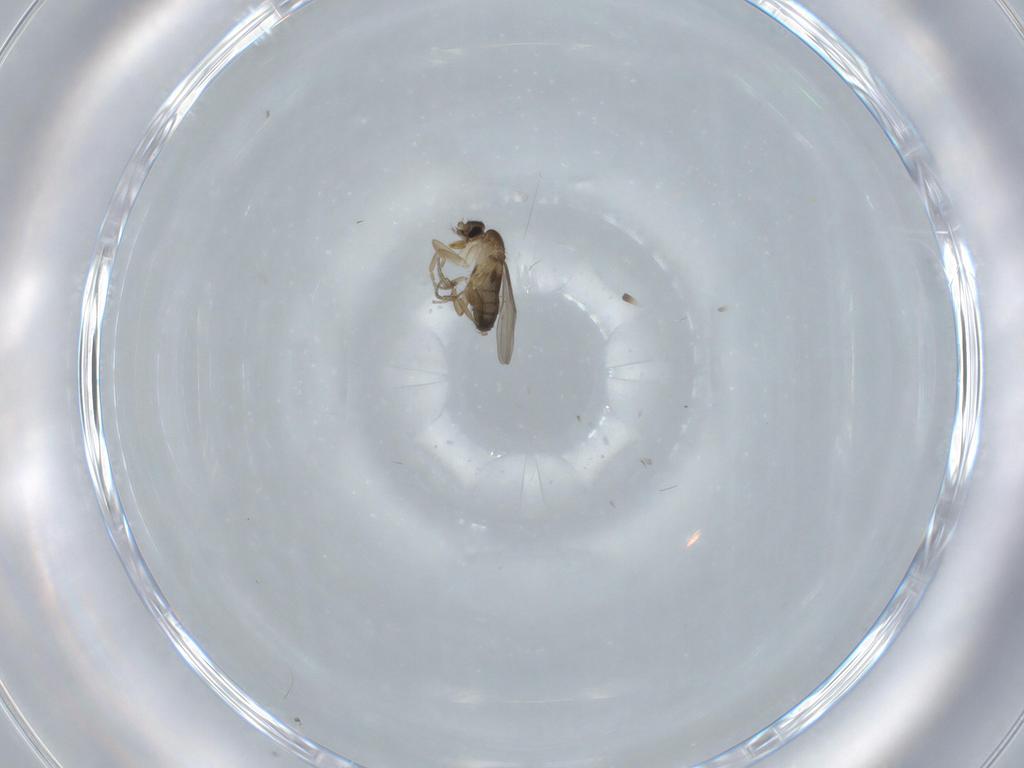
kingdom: Animalia
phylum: Arthropoda
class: Insecta
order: Diptera
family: Phoridae
